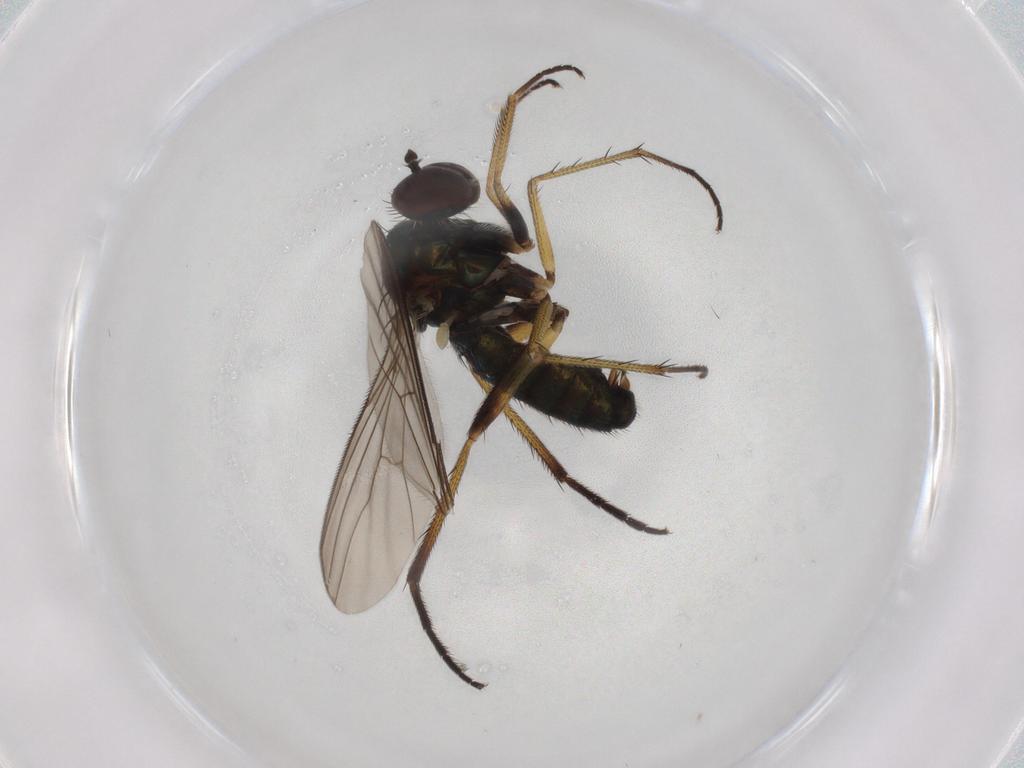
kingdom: Animalia
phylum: Arthropoda
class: Insecta
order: Diptera
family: Dolichopodidae
